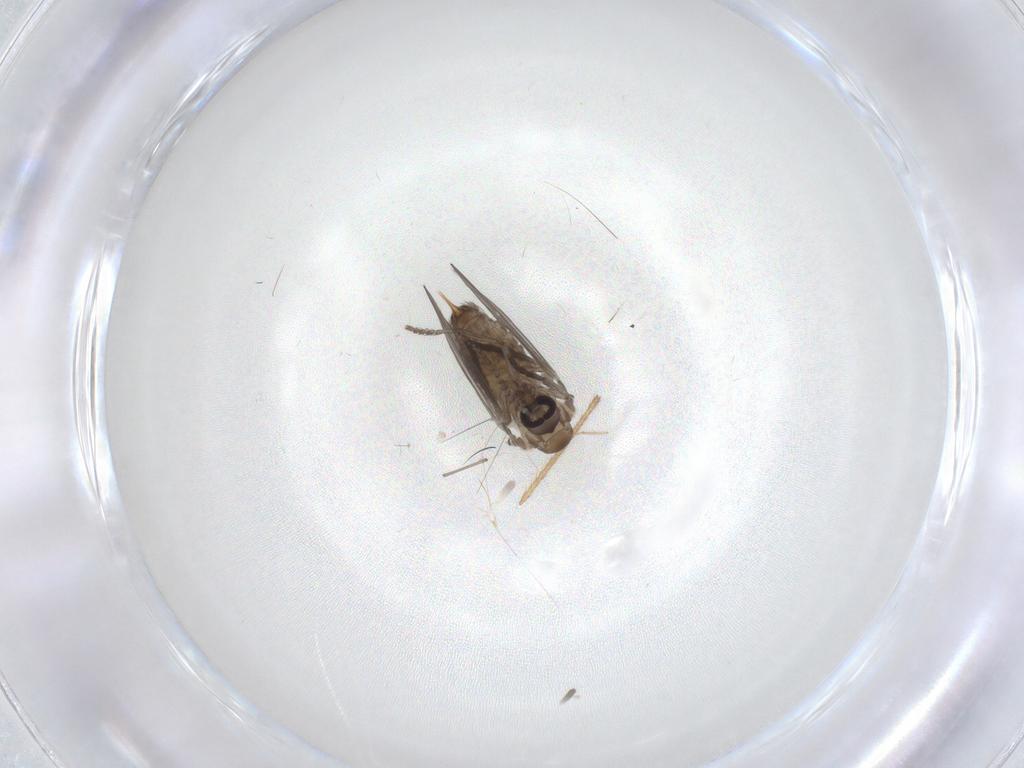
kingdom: Animalia
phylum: Arthropoda
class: Insecta
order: Diptera
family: Psychodidae
